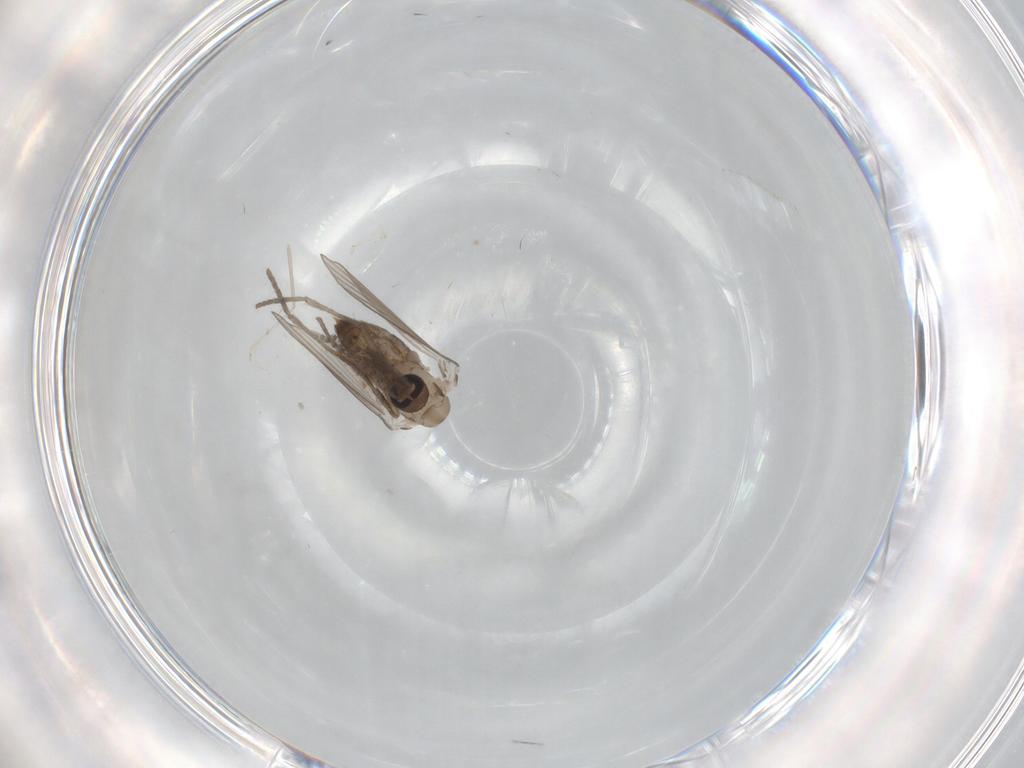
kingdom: Animalia
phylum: Arthropoda
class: Insecta
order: Diptera
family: Psychodidae
